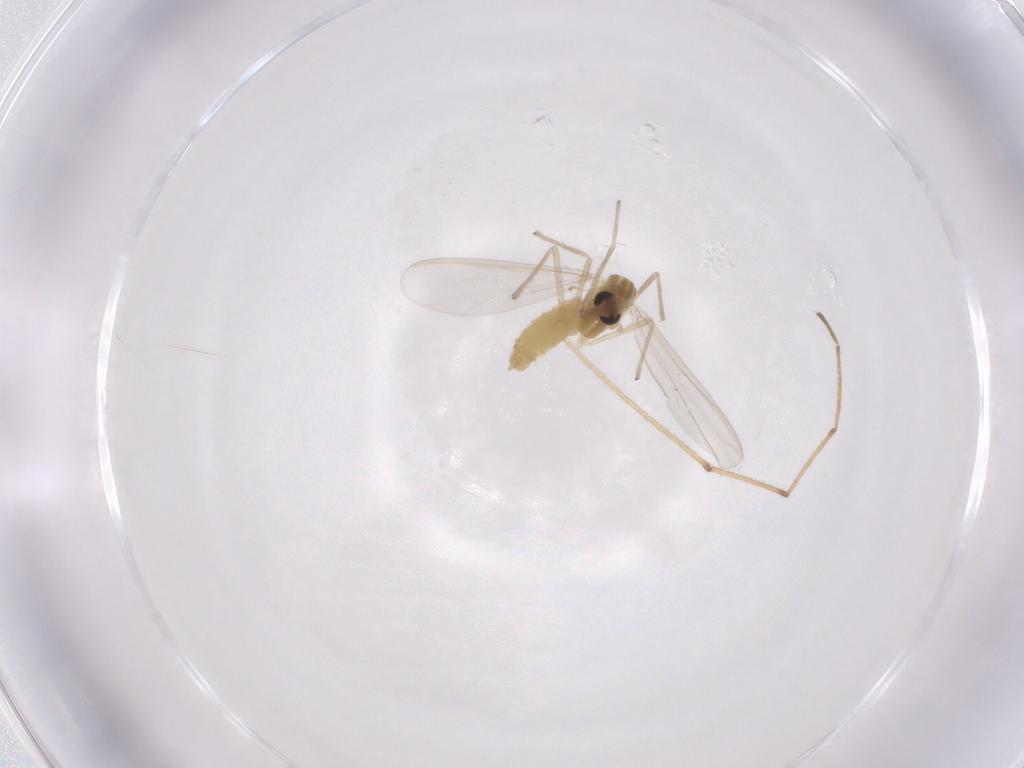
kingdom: Animalia
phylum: Arthropoda
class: Insecta
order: Diptera
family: Chironomidae
